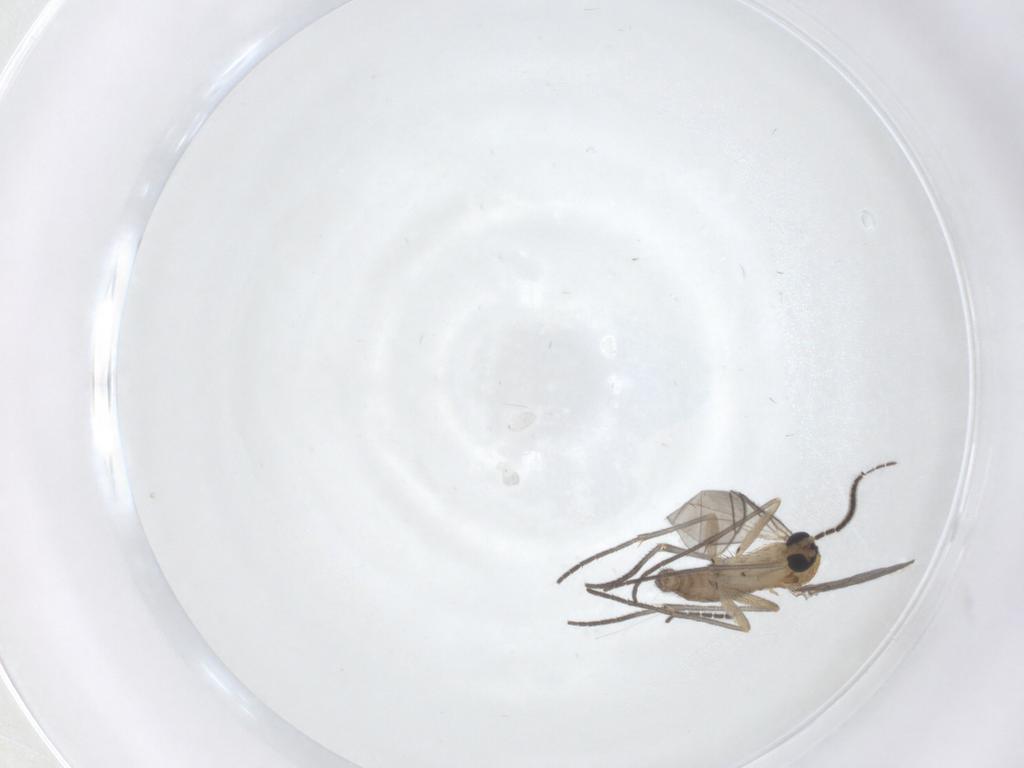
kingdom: Animalia
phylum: Arthropoda
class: Insecta
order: Diptera
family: Sciaridae
